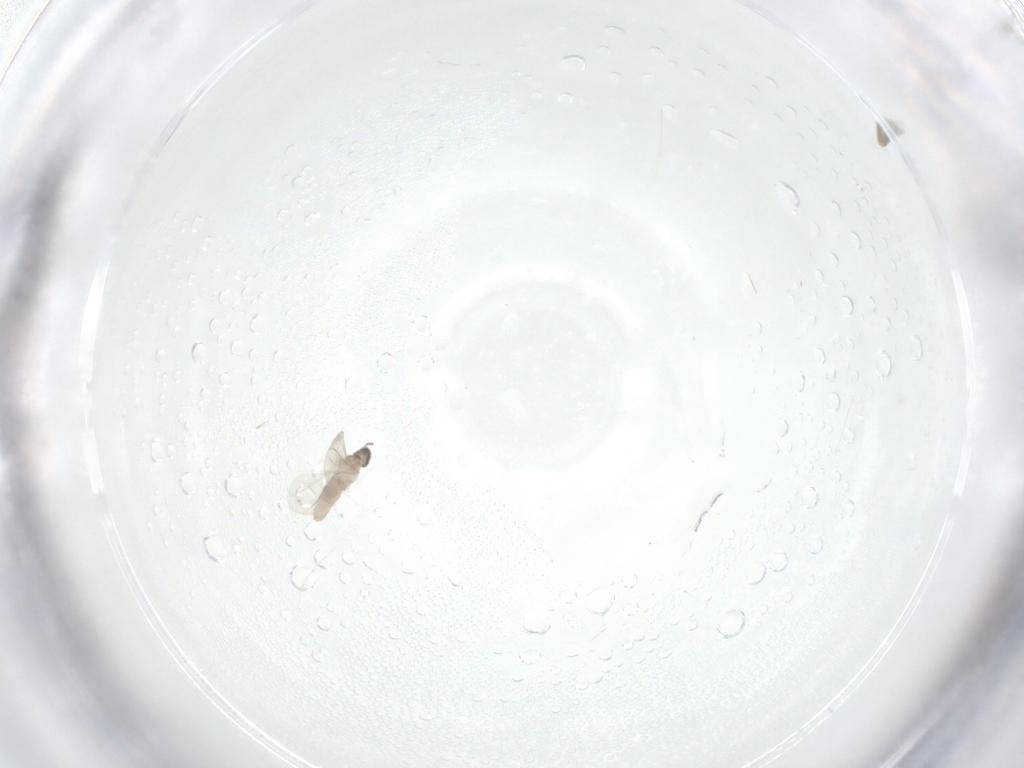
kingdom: Animalia
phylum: Arthropoda
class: Insecta
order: Diptera
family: Cecidomyiidae
